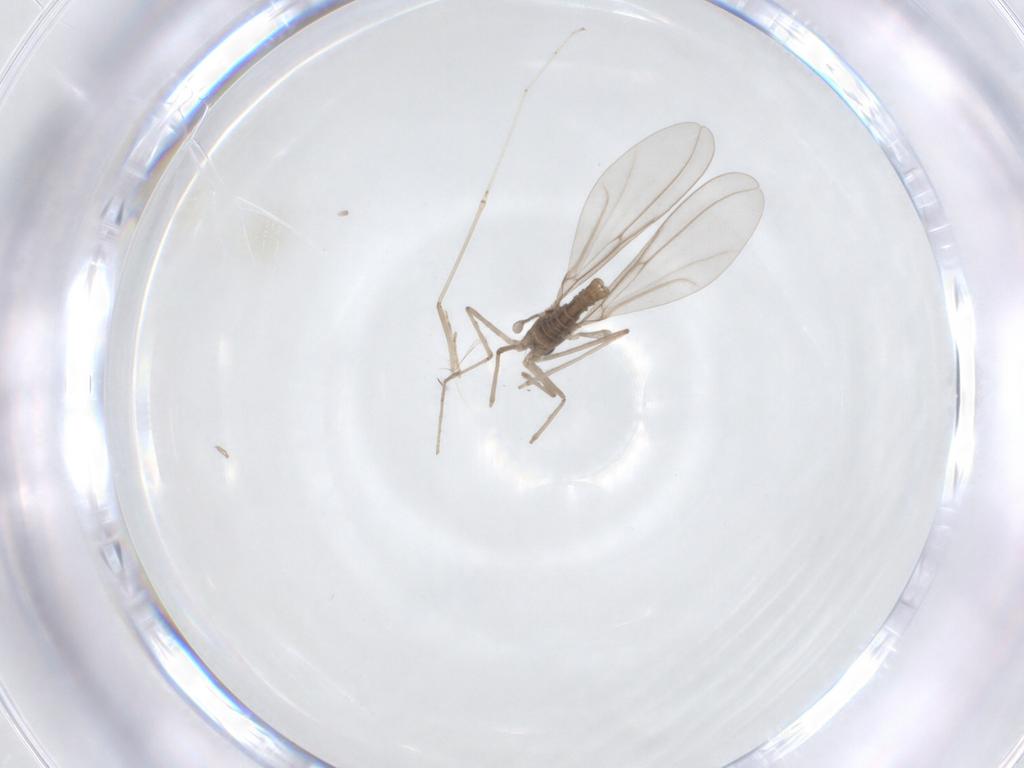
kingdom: Animalia
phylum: Arthropoda
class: Insecta
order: Diptera
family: Cecidomyiidae
